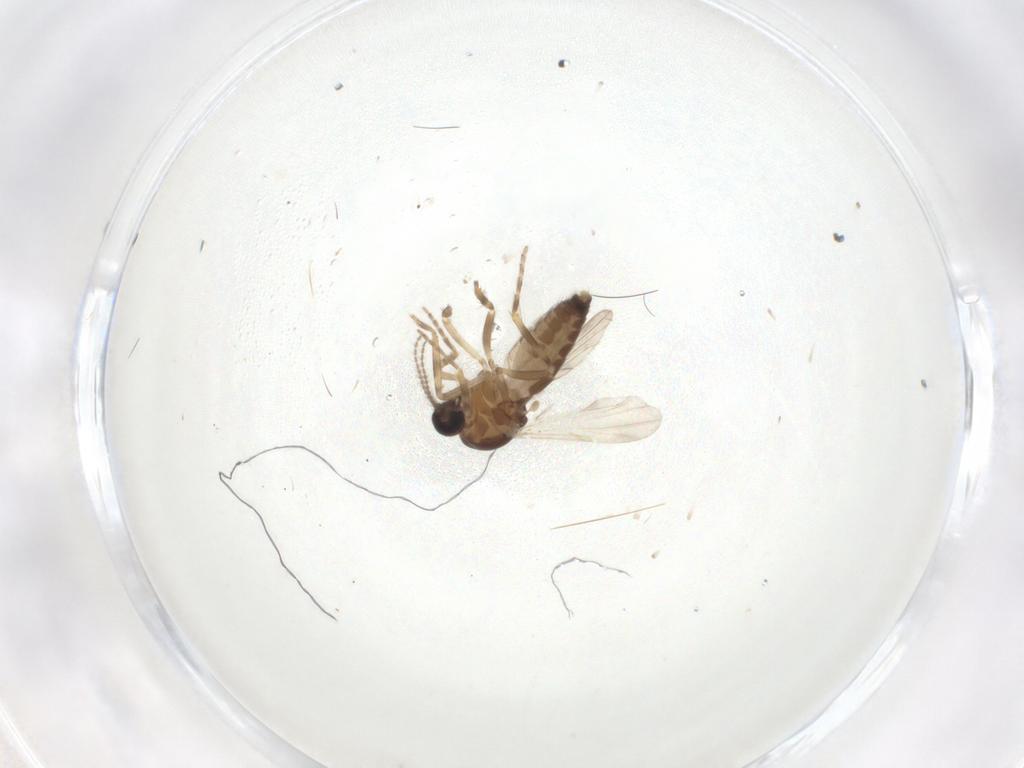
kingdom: Animalia
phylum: Arthropoda
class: Insecta
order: Diptera
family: Ceratopogonidae
